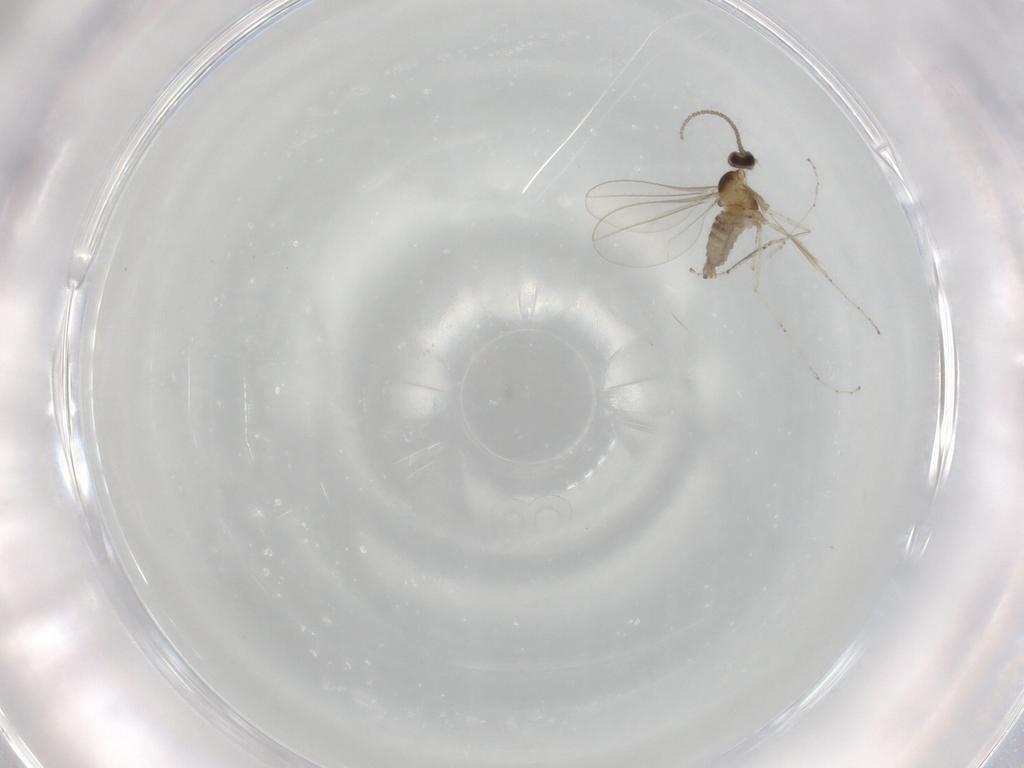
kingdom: Animalia
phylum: Arthropoda
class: Insecta
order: Diptera
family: Cecidomyiidae
